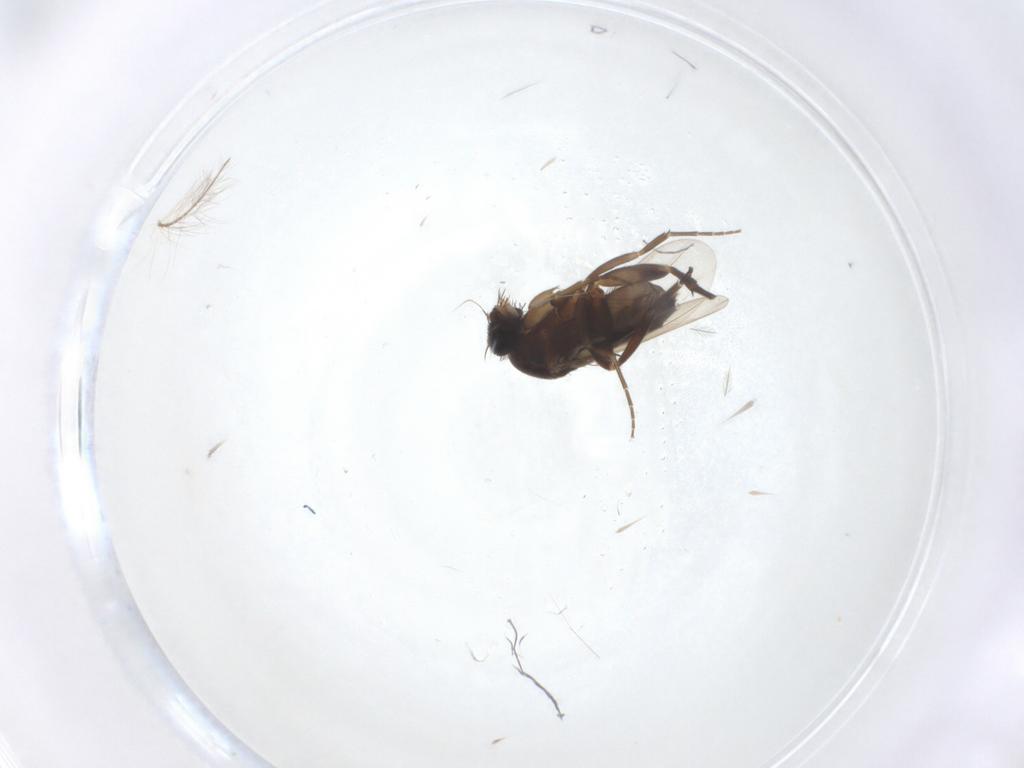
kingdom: Animalia
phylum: Arthropoda
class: Insecta
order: Diptera
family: Phoridae
